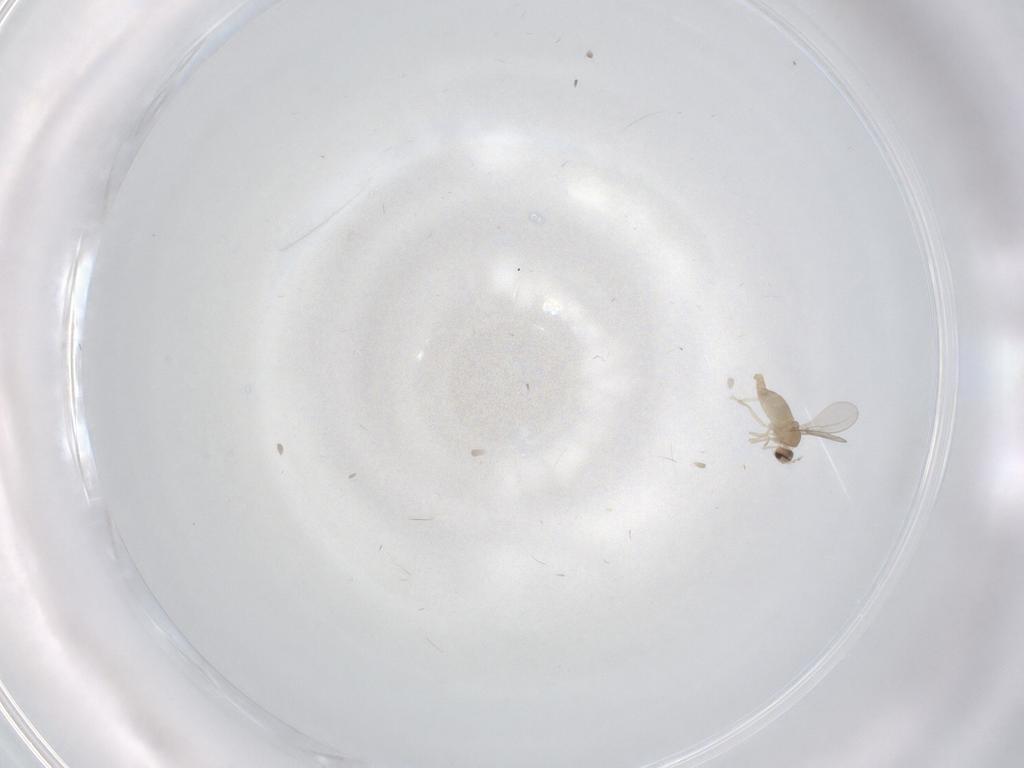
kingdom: Animalia
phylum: Arthropoda
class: Insecta
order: Diptera
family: Cecidomyiidae
